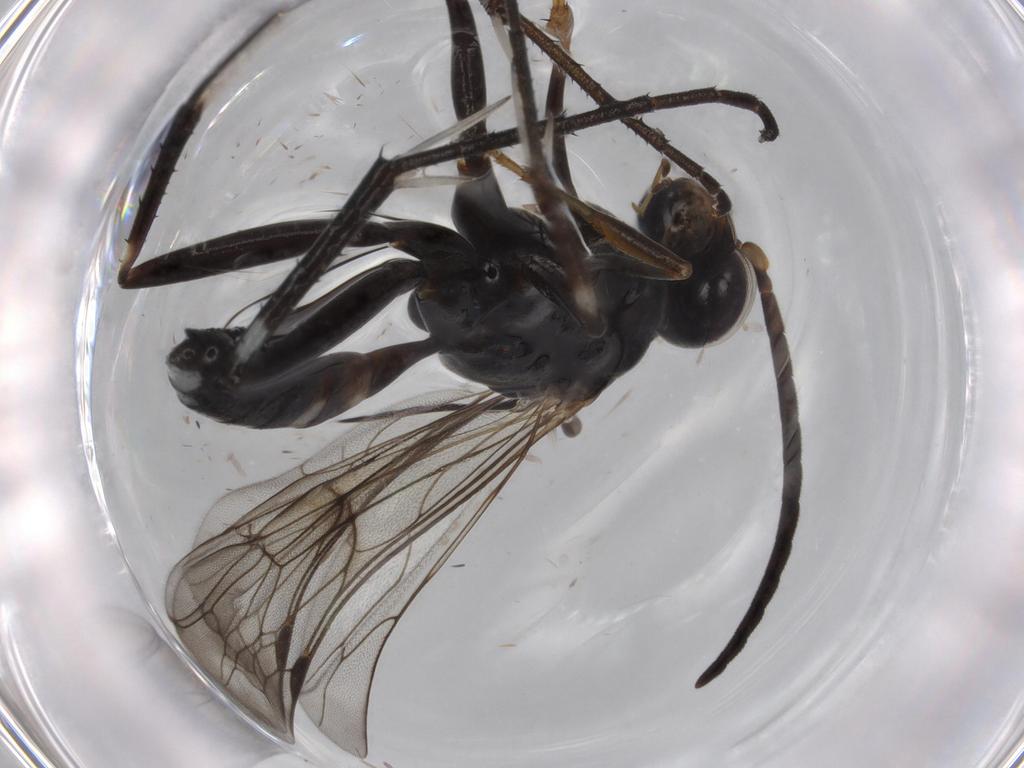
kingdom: Animalia
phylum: Arthropoda
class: Insecta
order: Hymenoptera
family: Pompilidae
